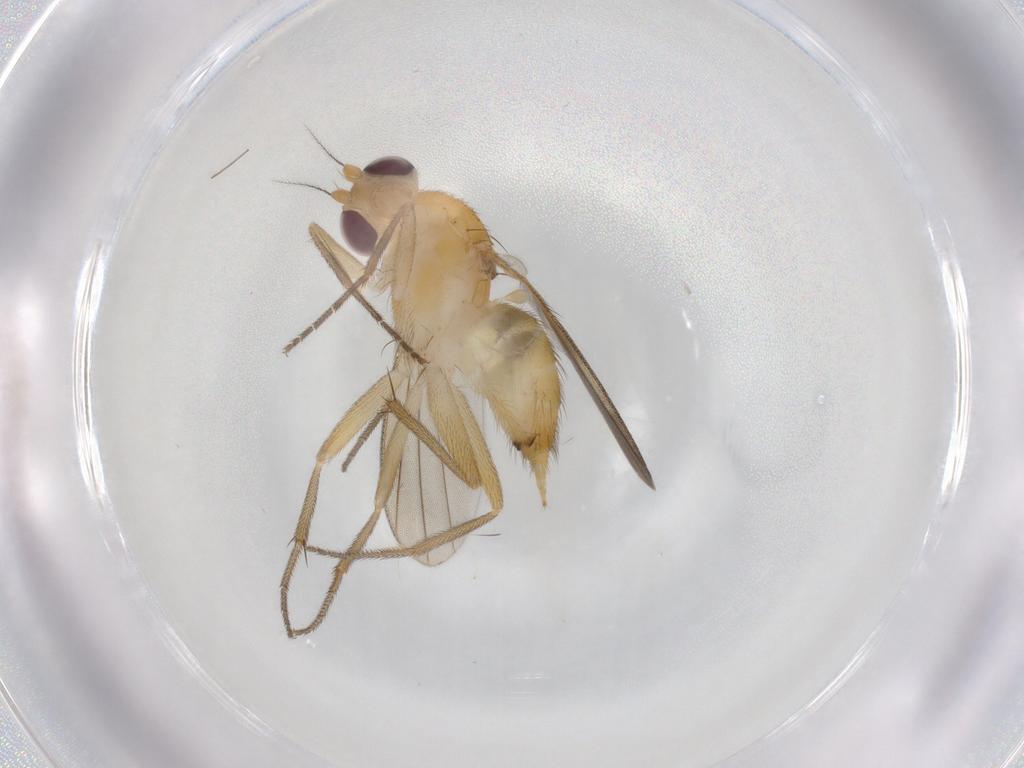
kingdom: Animalia
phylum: Arthropoda
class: Insecta
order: Diptera
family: Clusiidae
